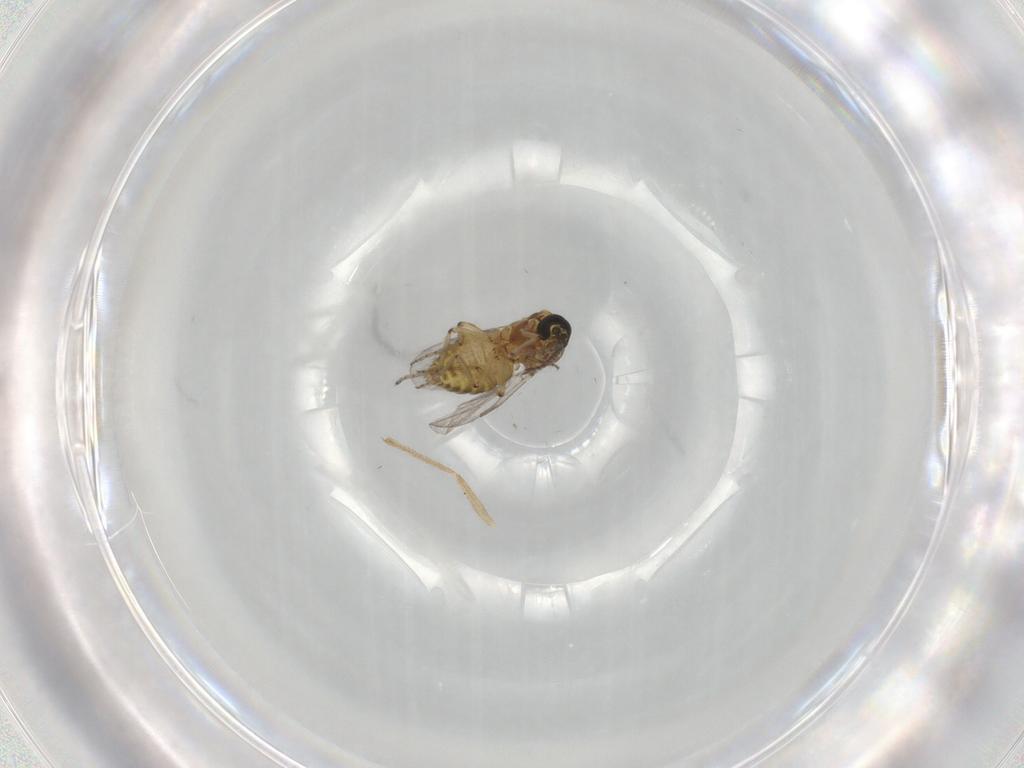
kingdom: Animalia
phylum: Arthropoda
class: Insecta
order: Diptera
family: Ceratopogonidae
